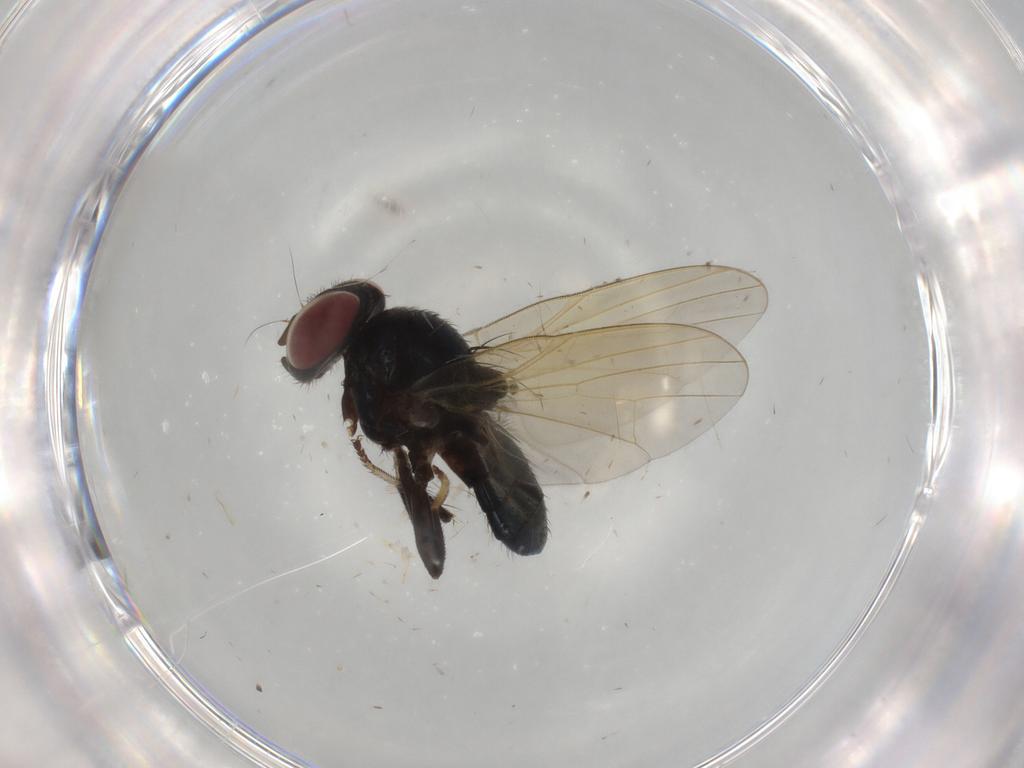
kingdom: Animalia
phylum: Arthropoda
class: Insecta
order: Diptera
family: Lonchaeidae
